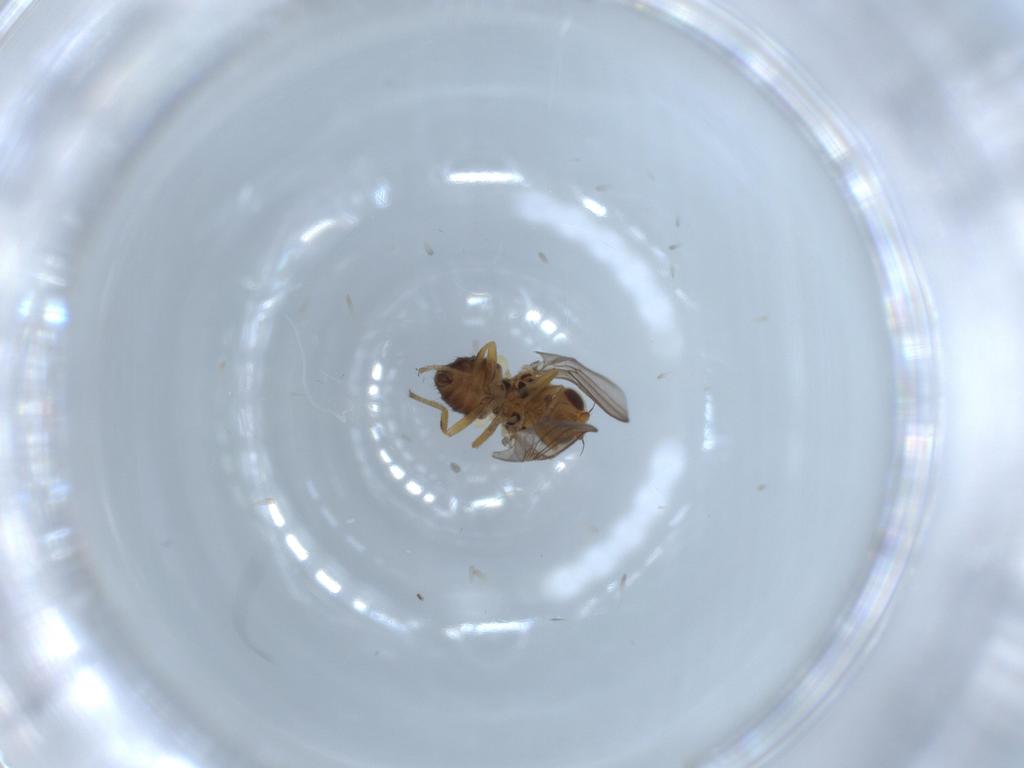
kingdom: Animalia
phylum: Arthropoda
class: Insecta
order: Diptera
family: Chloropidae
